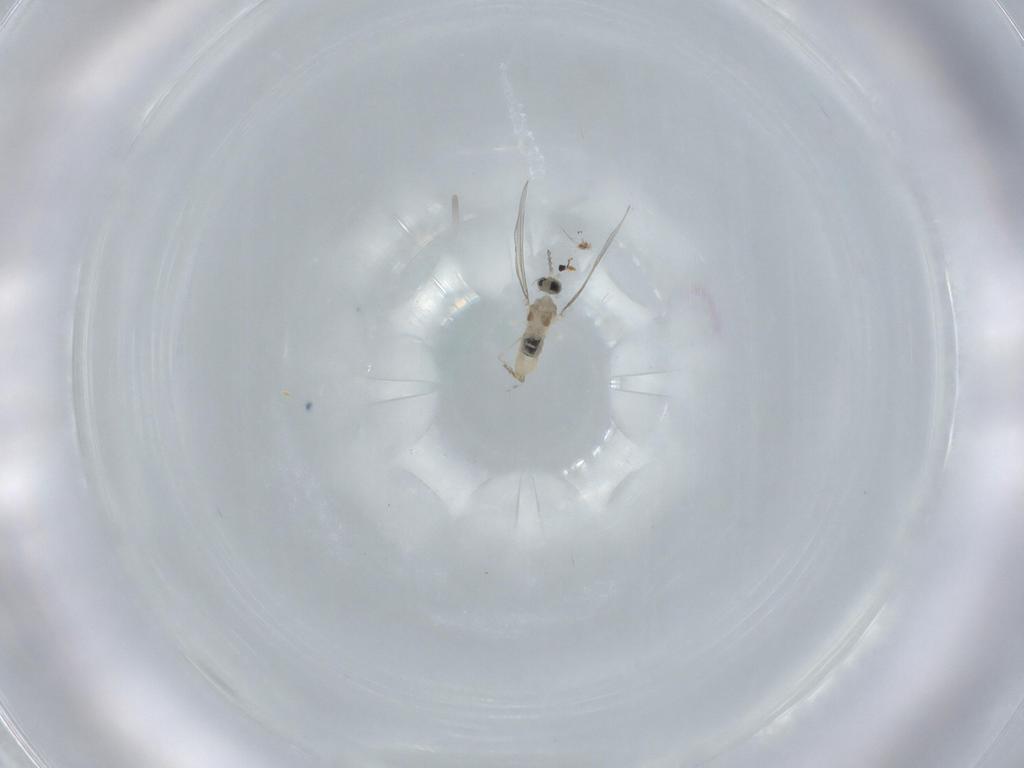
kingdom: Animalia
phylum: Arthropoda
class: Insecta
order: Diptera
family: Cecidomyiidae
